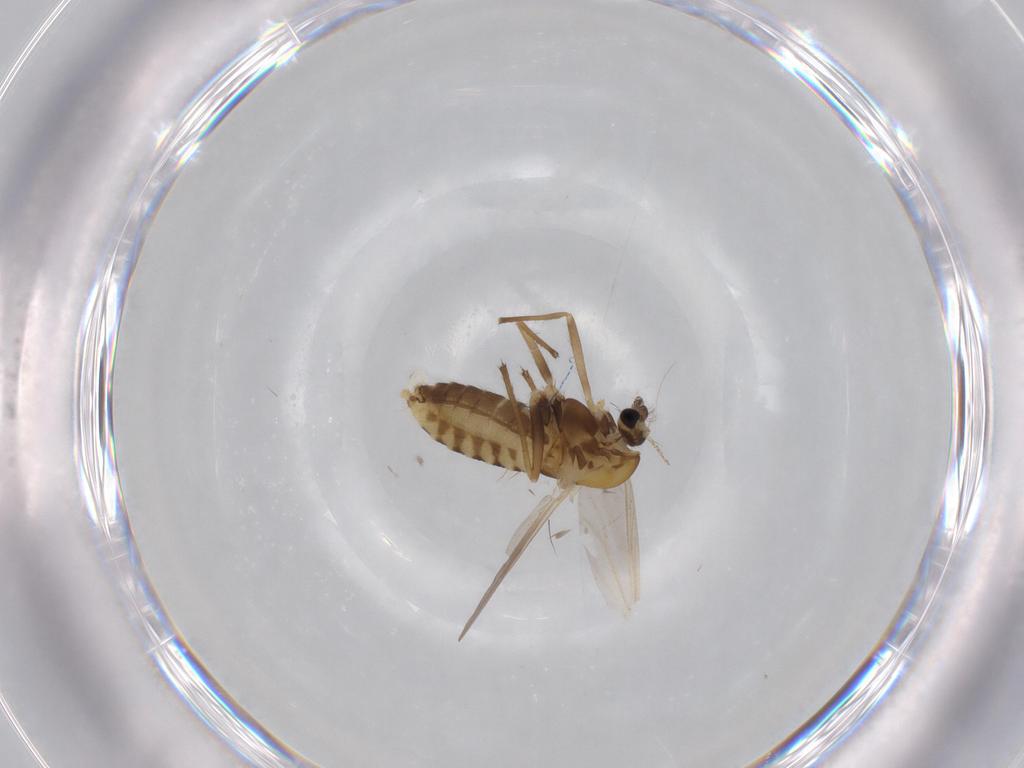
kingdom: Animalia
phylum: Arthropoda
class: Insecta
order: Diptera
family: Chironomidae
